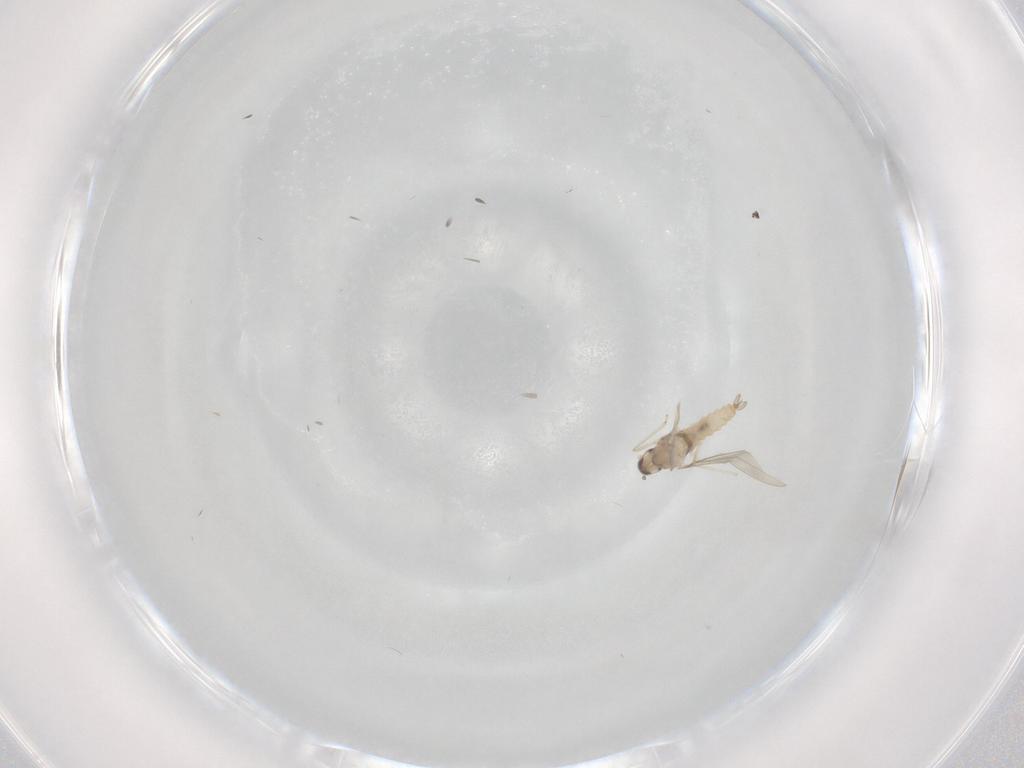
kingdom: Animalia
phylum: Arthropoda
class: Insecta
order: Diptera
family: Cecidomyiidae
